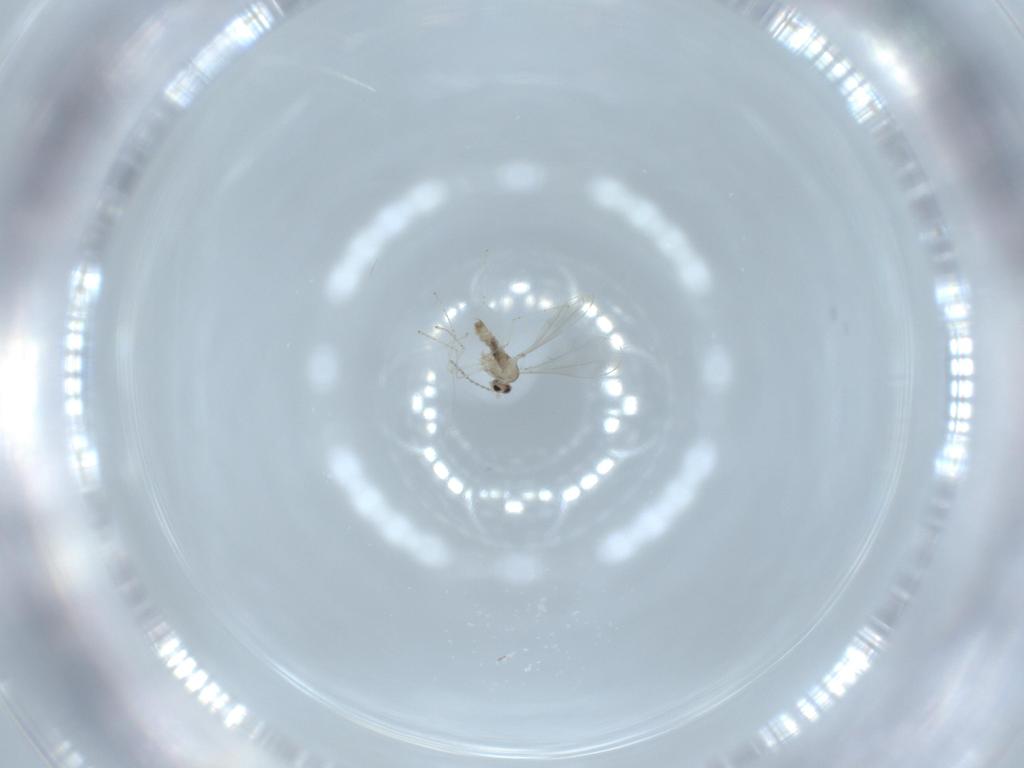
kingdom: Animalia
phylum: Arthropoda
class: Insecta
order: Diptera
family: Cecidomyiidae
